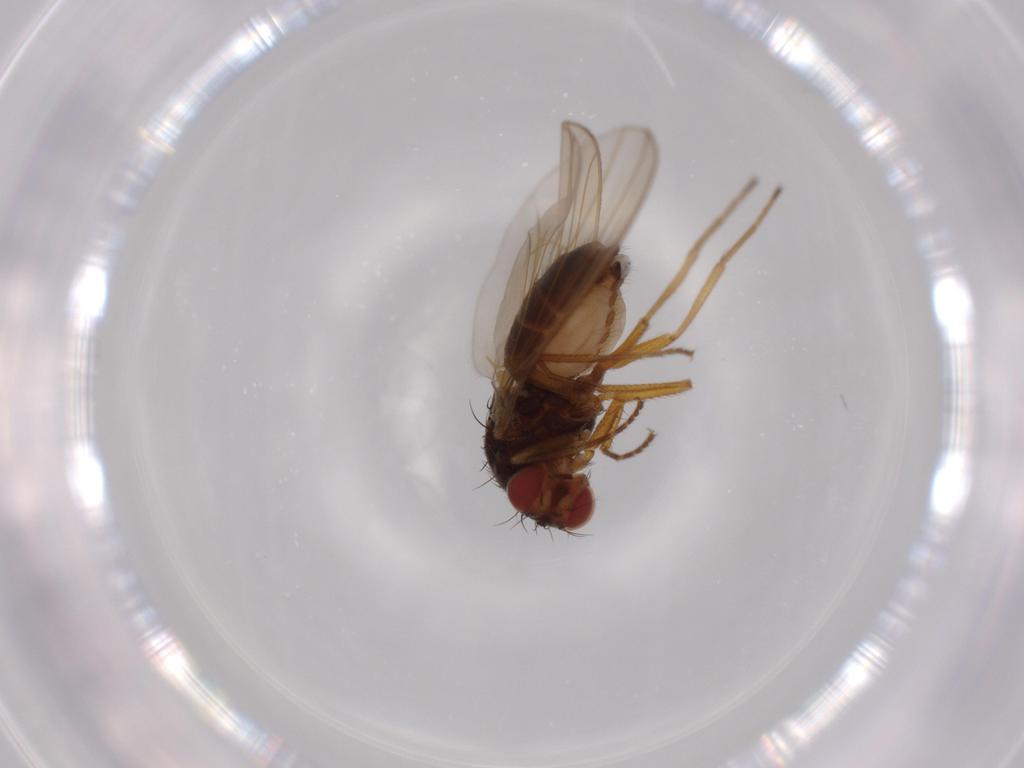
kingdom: Animalia
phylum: Arthropoda
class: Insecta
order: Diptera
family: Drosophilidae
